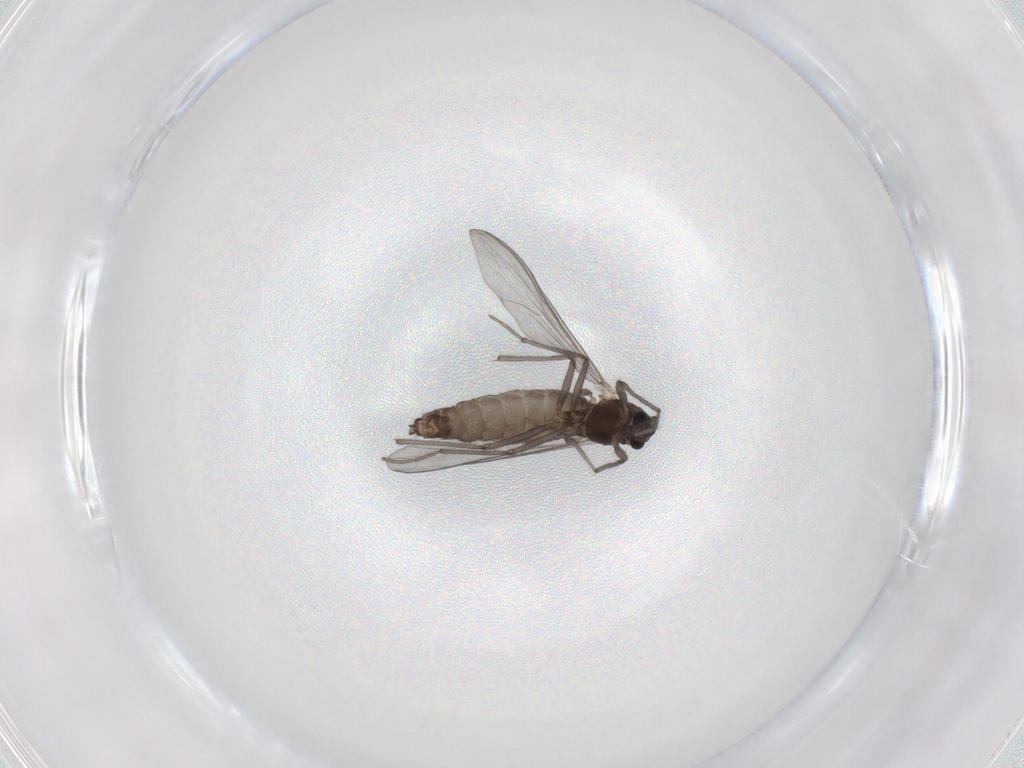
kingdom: Animalia
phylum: Arthropoda
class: Insecta
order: Diptera
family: Chironomidae
